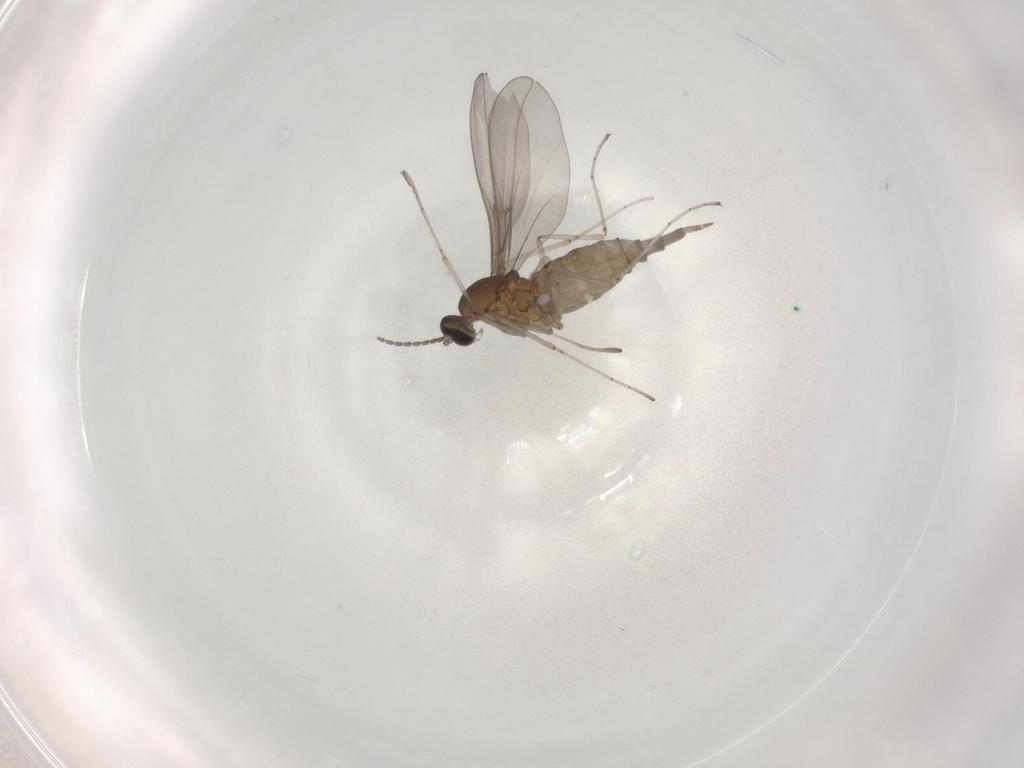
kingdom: Animalia
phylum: Arthropoda
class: Insecta
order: Diptera
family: Cecidomyiidae
